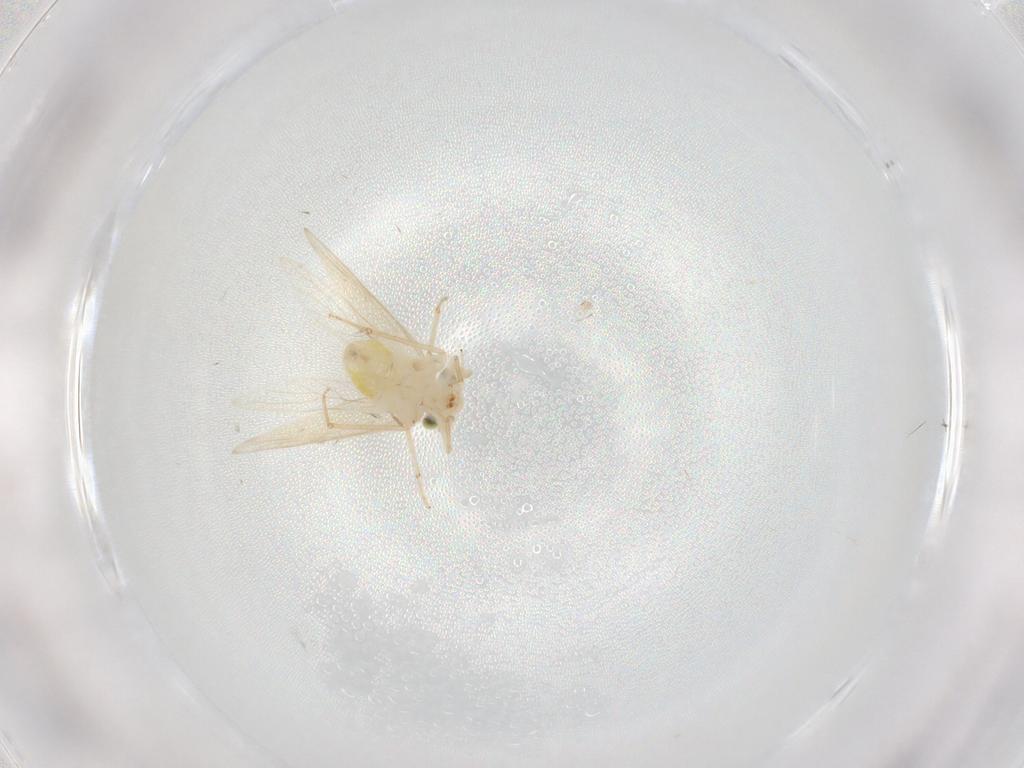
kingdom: Animalia
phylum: Arthropoda
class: Insecta
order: Psocodea
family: Lepidopsocidae
